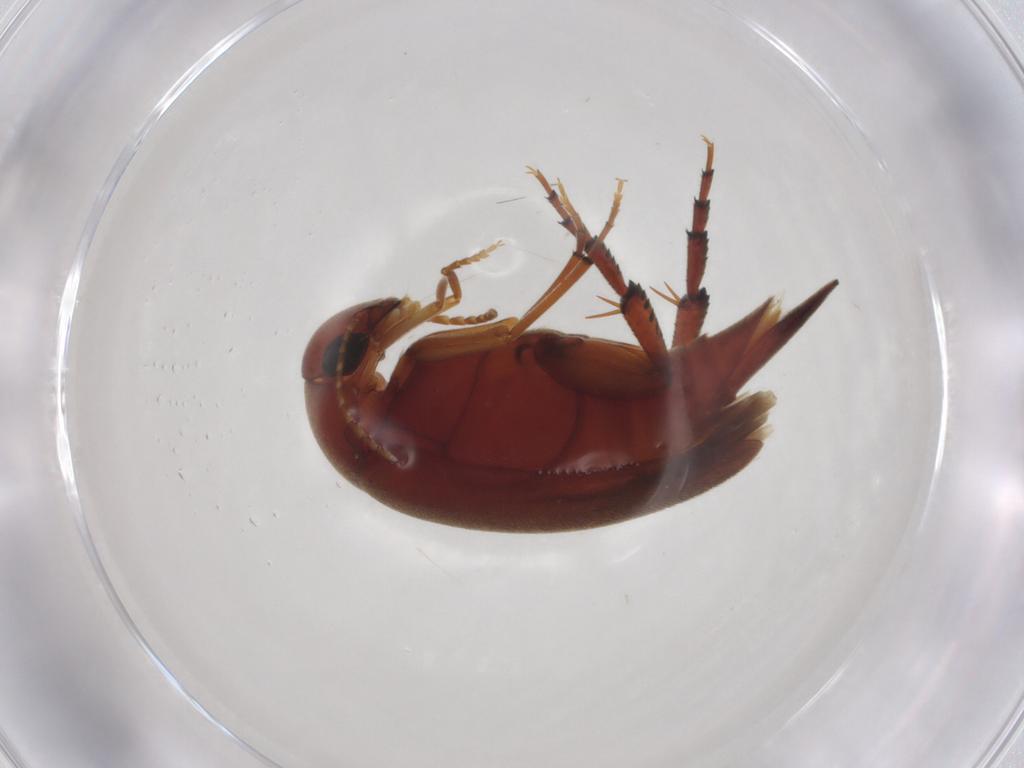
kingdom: Animalia
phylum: Arthropoda
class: Insecta
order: Coleoptera
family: Mordellidae
